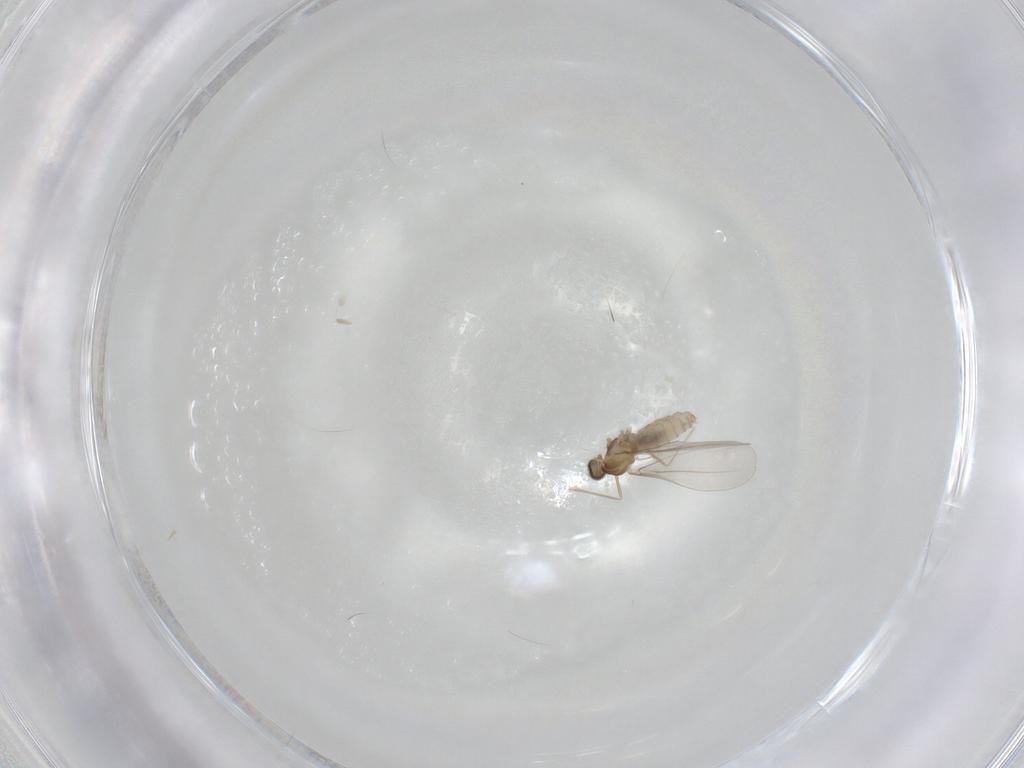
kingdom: Animalia
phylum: Arthropoda
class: Insecta
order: Diptera
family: Cecidomyiidae
